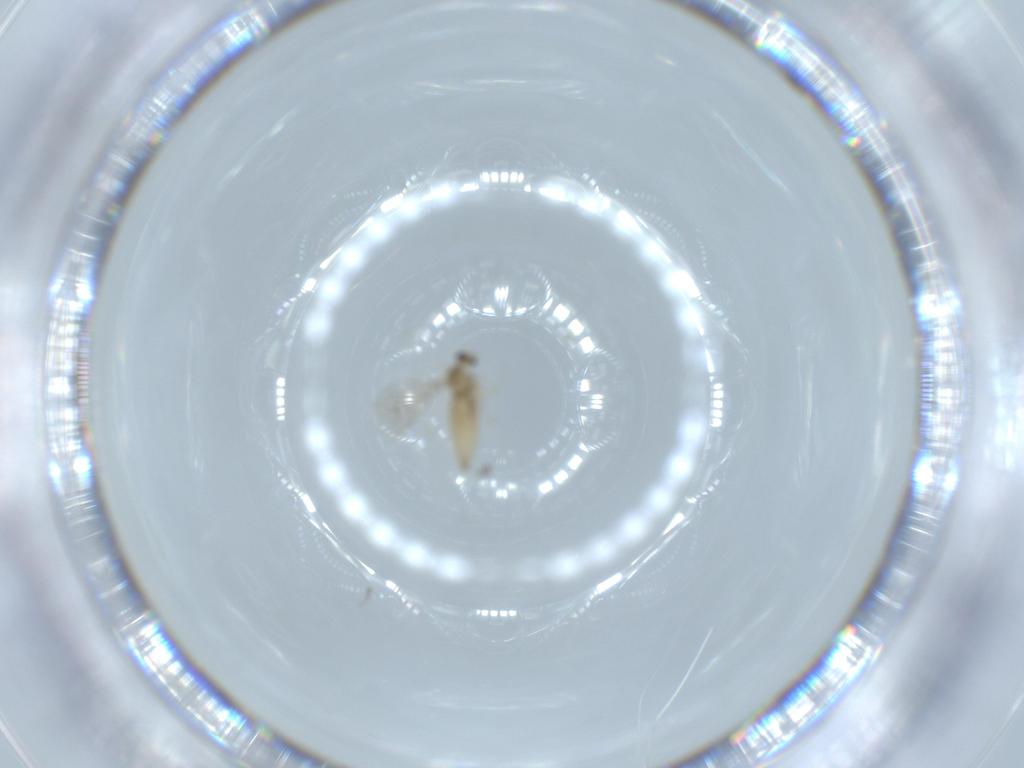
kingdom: Animalia
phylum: Arthropoda
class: Insecta
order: Diptera
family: Cecidomyiidae
